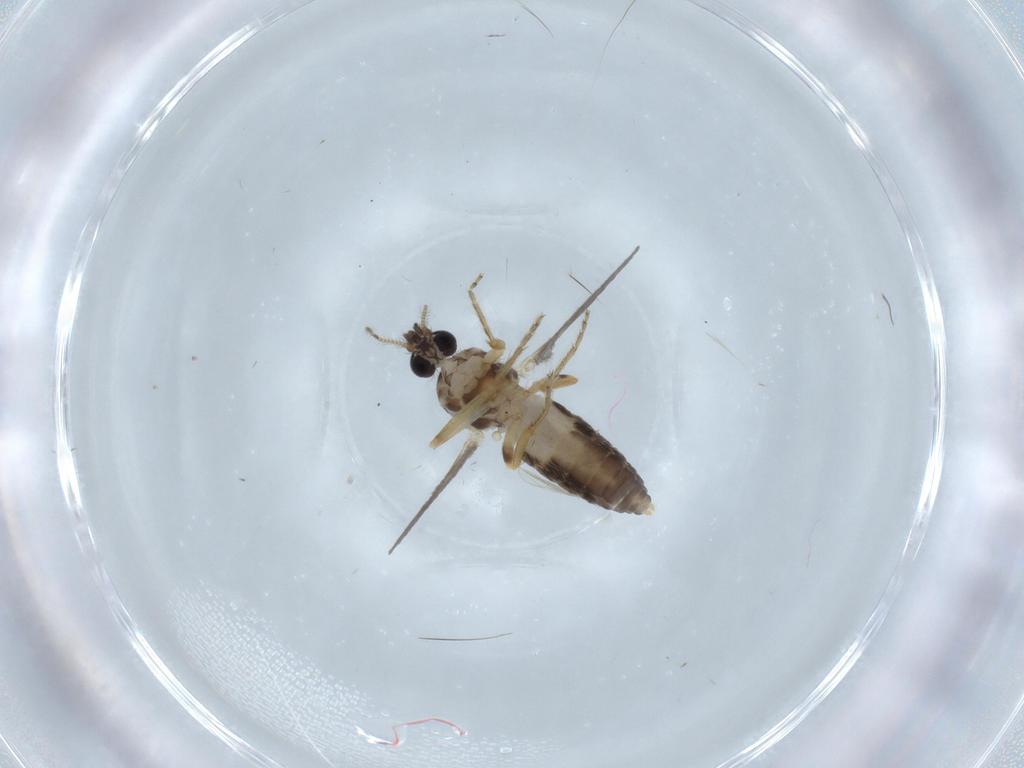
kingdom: Animalia
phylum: Arthropoda
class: Insecta
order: Diptera
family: Ceratopogonidae
